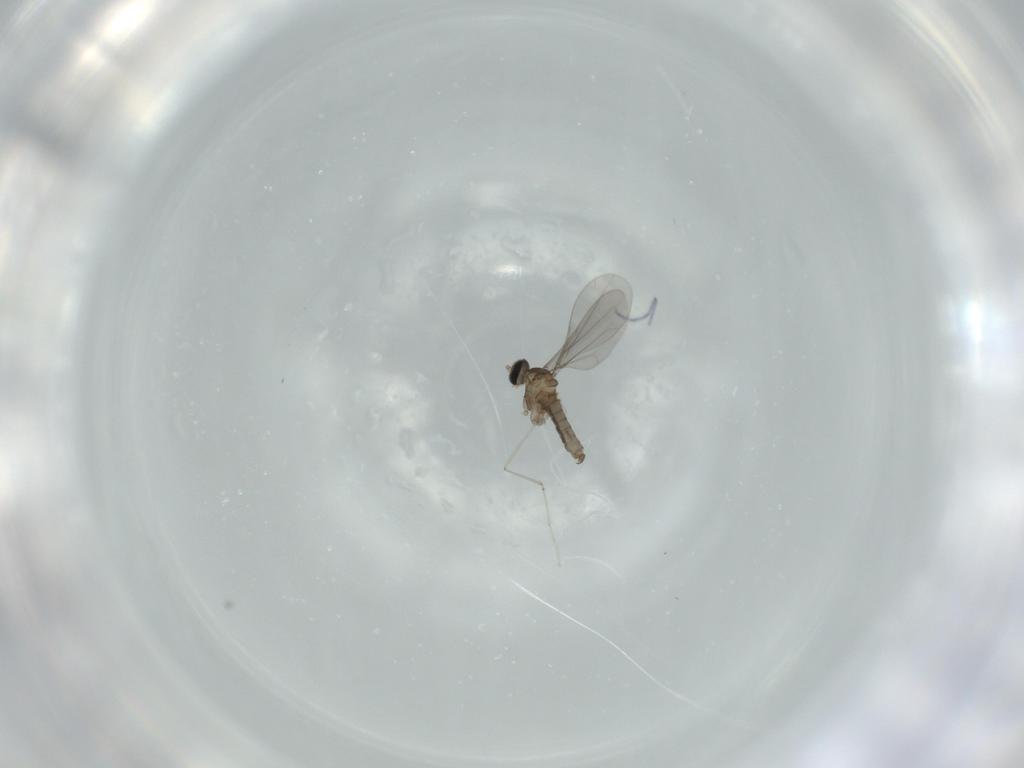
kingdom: Animalia
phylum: Arthropoda
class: Insecta
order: Diptera
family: Cecidomyiidae
